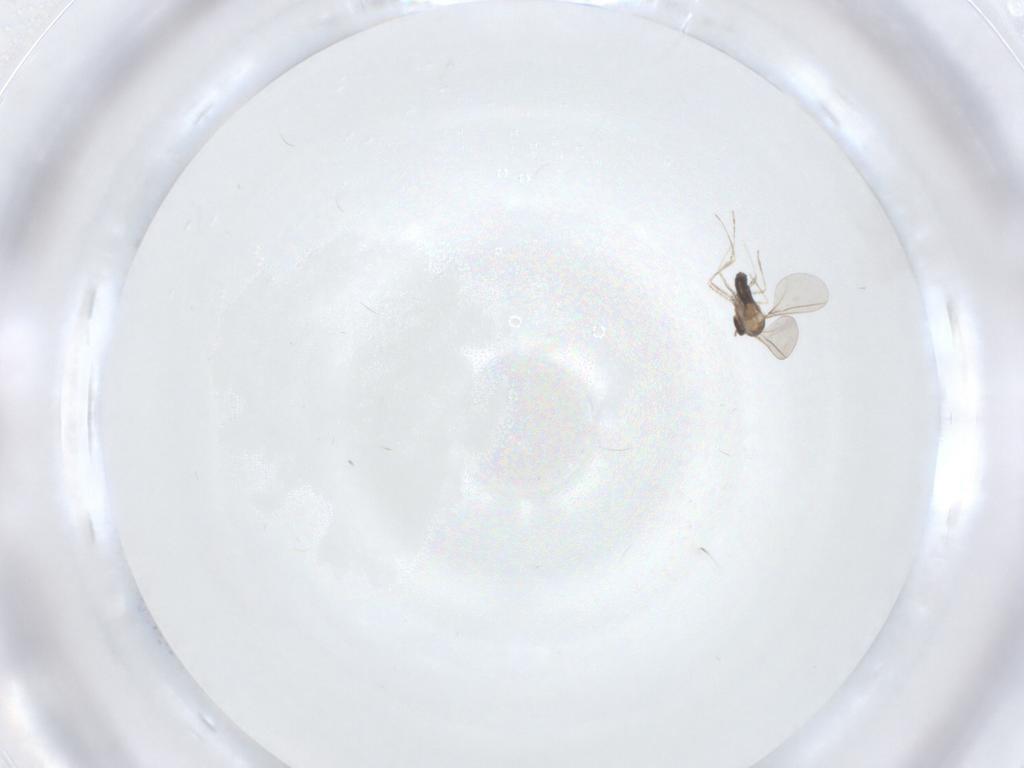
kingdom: Animalia
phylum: Arthropoda
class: Insecta
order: Diptera
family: Cecidomyiidae
